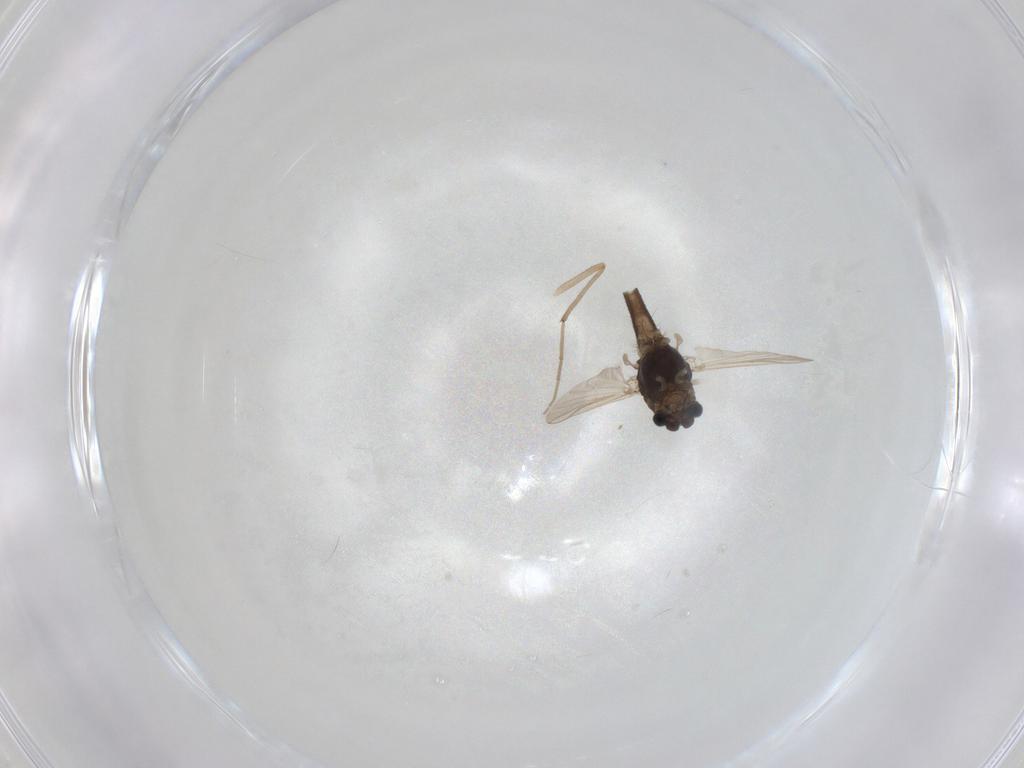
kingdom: Animalia
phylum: Arthropoda
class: Insecta
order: Diptera
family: Chironomidae
